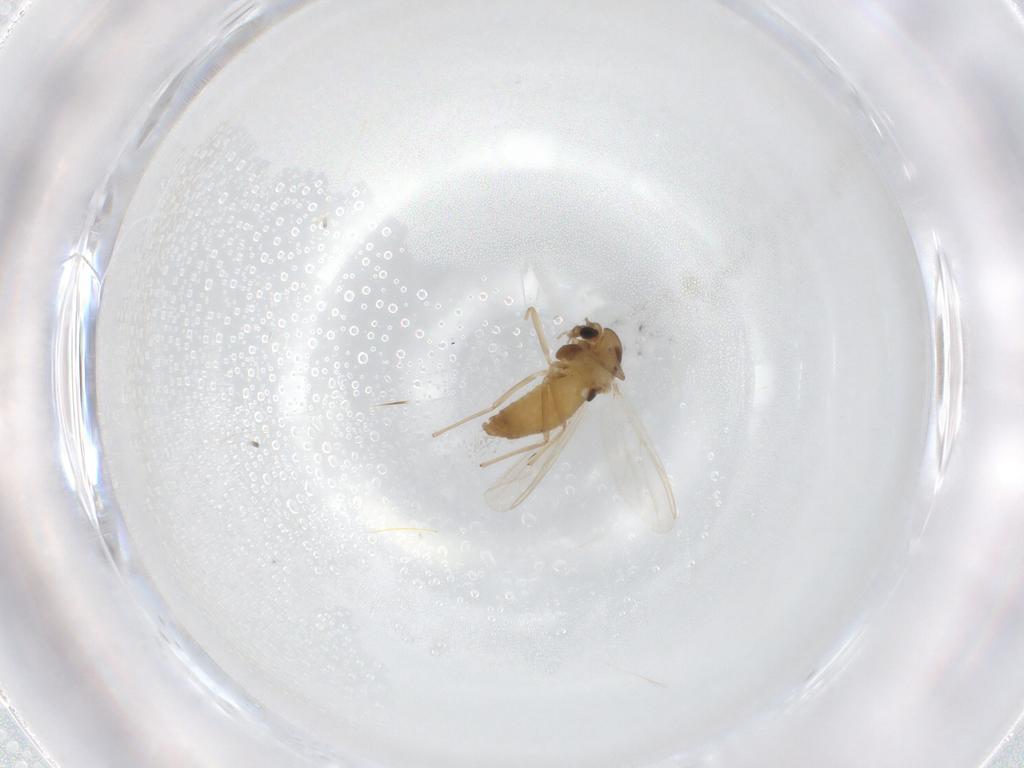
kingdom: Animalia
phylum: Arthropoda
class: Insecta
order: Diptera
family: Chironomidae
